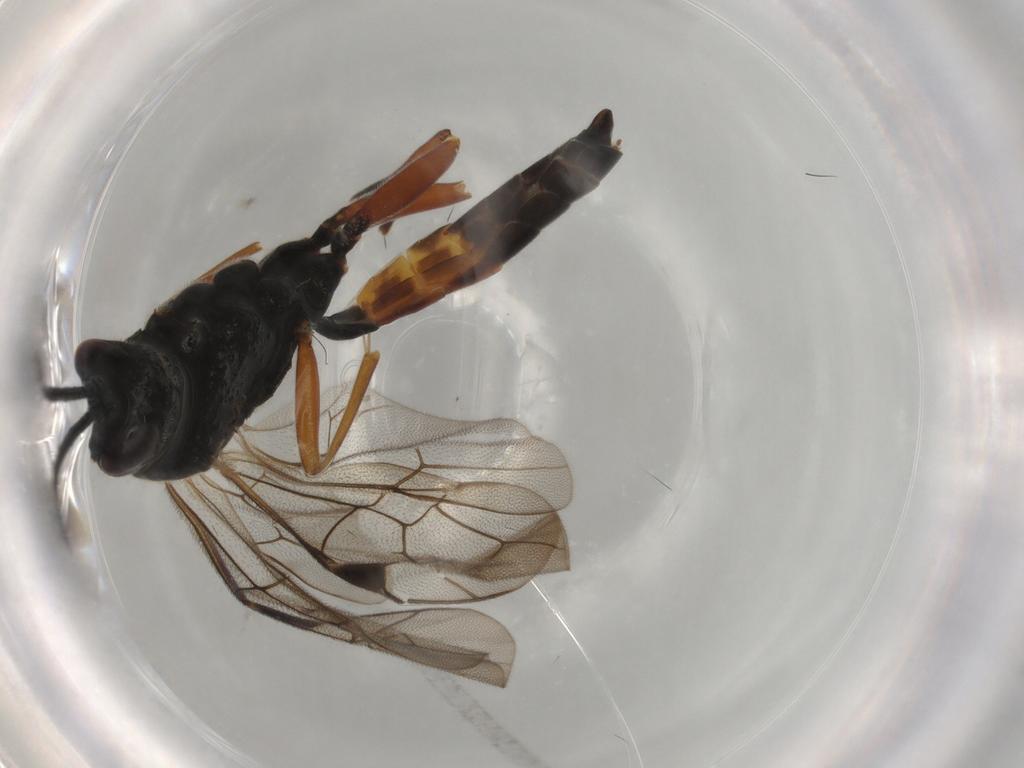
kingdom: Animalia
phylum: Arthropoda
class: Insecta
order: Hymenoptera
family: Formicidae
